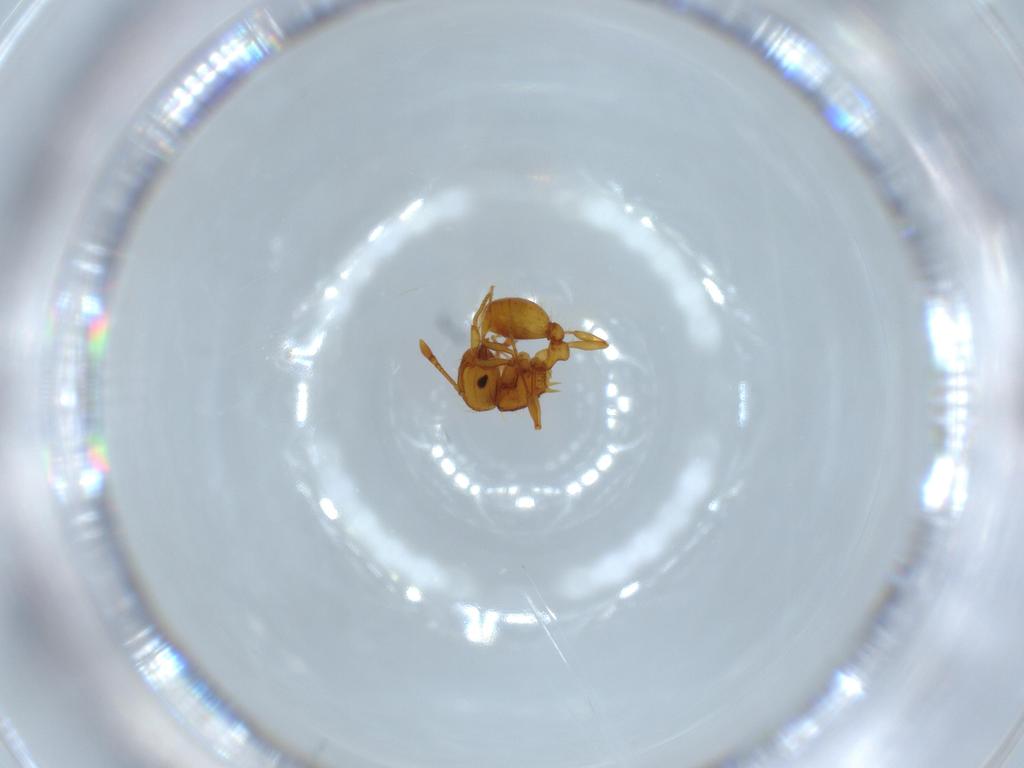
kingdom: Animalia
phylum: Arthropoda
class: Insecta
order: Hymenoptera
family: Formicidae
